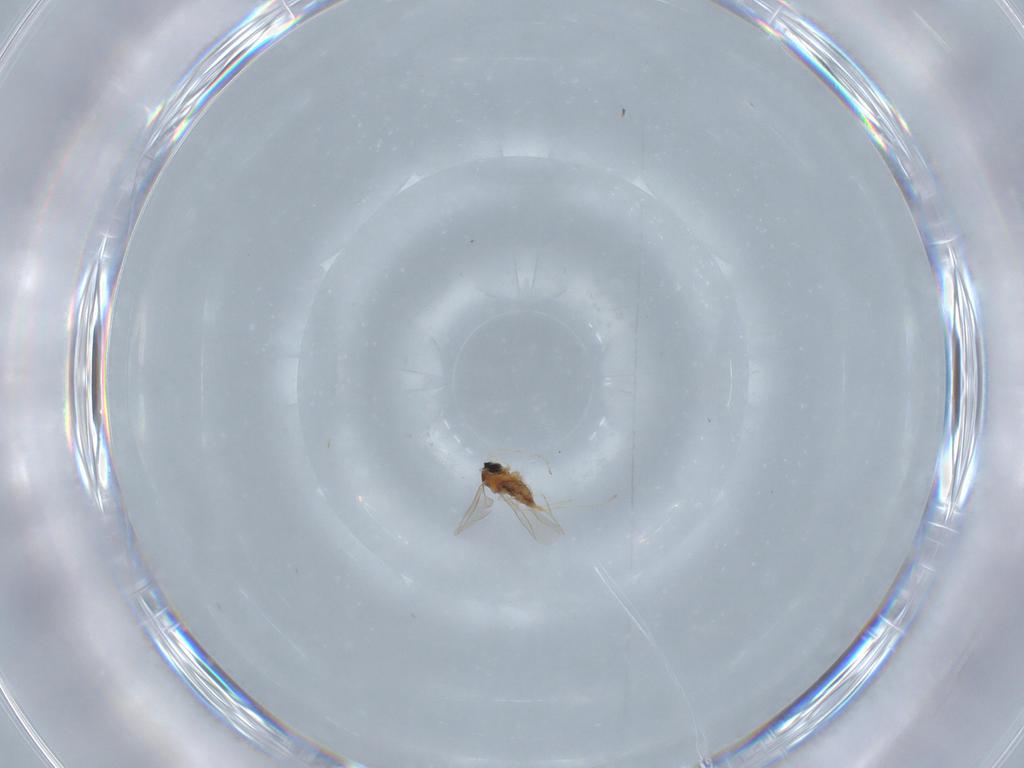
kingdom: Animalia
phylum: Arthropoda
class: Insecta
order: Diptera
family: Cecidomyiidae
